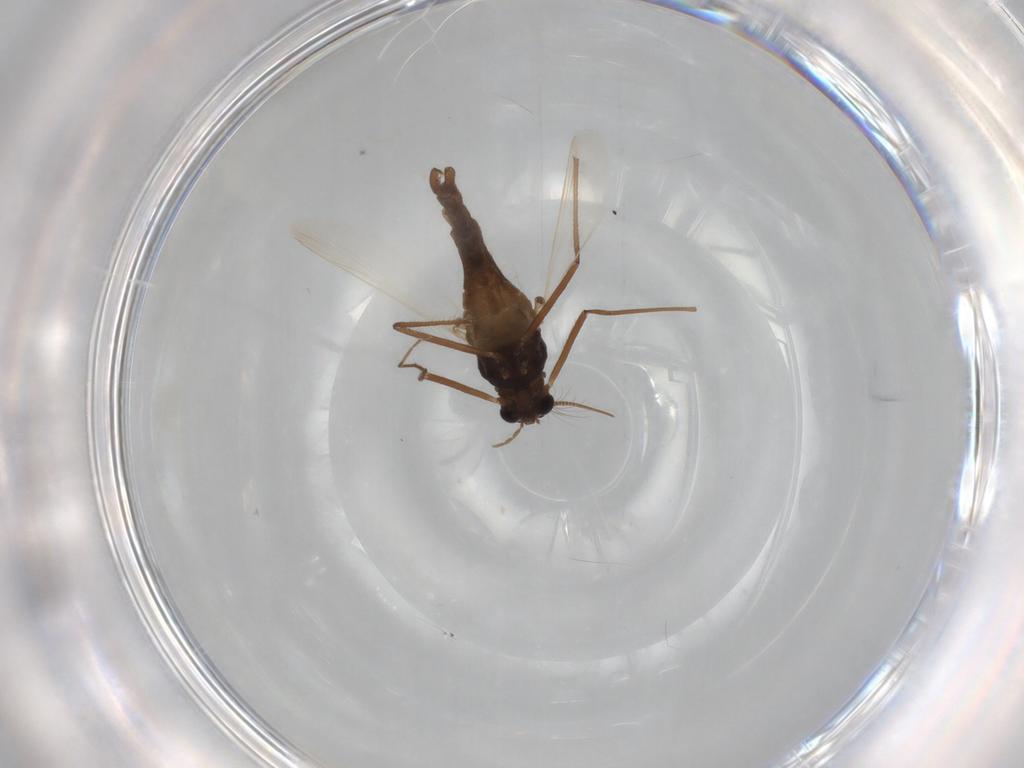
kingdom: Animalia
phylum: Arthropoda
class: Insecta
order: Diptera
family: Chironomidae
